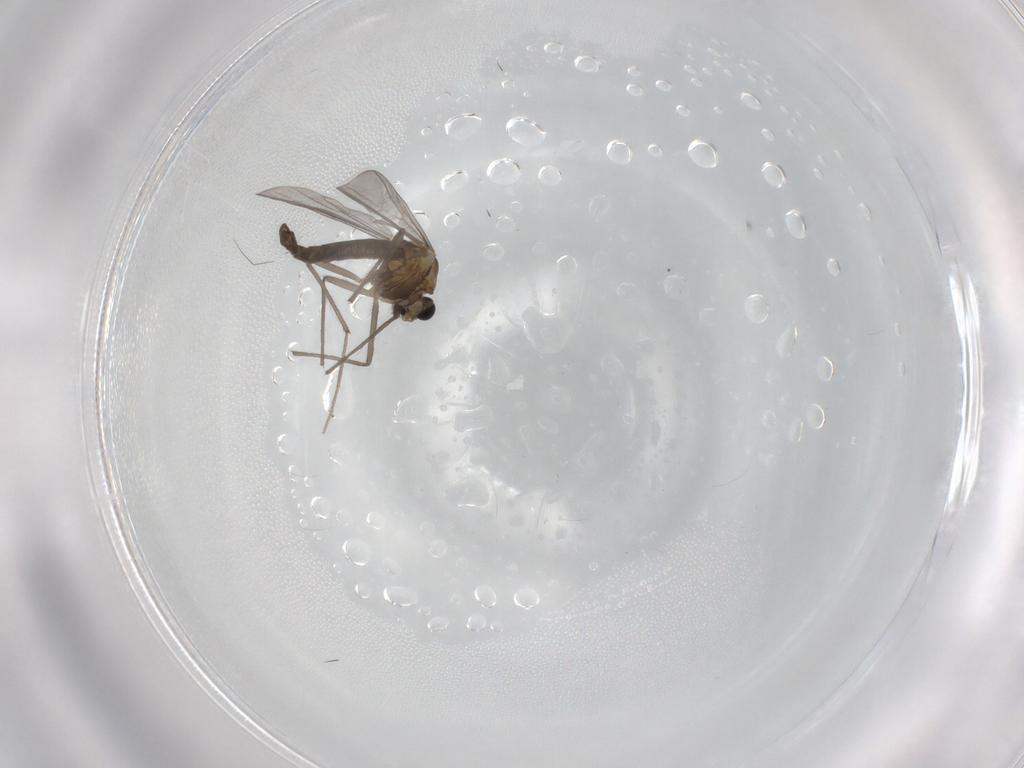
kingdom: Animalia
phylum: Arthropoda
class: Insecta
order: Diptera
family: Chironomidae
